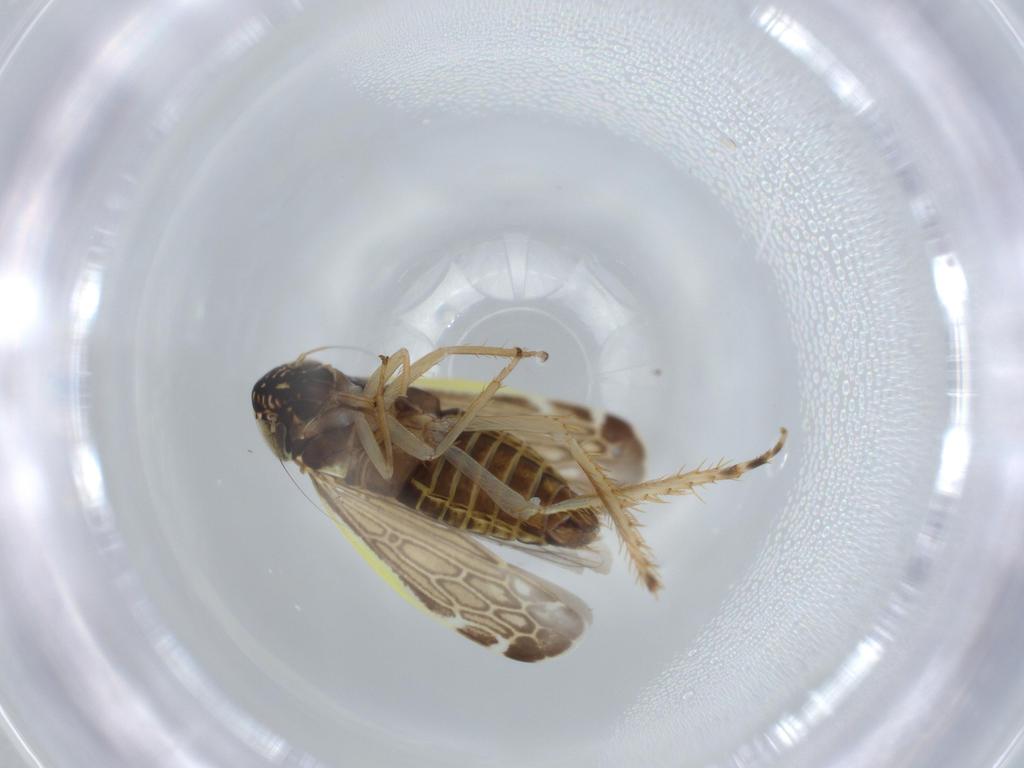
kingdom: Animalia
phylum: Arthropoda
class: Insecta
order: Hemiptera
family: Cicadellidae
